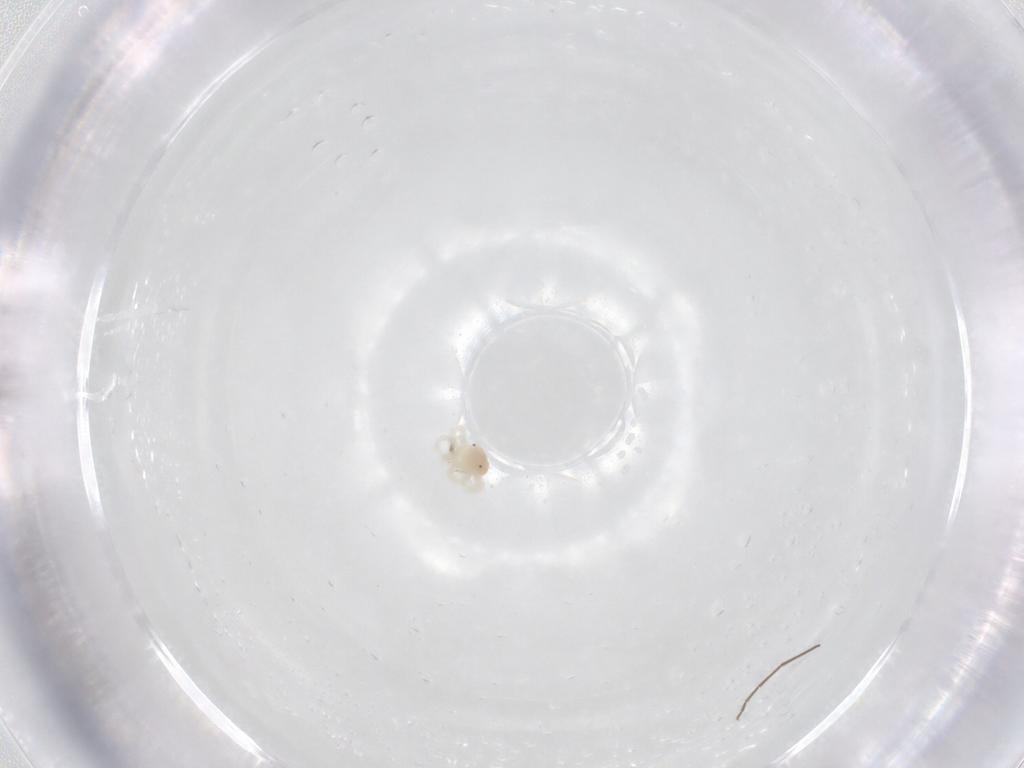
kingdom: Animalia
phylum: Arthropoda
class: Arachnida
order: Trombidiformes
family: Anystidae
